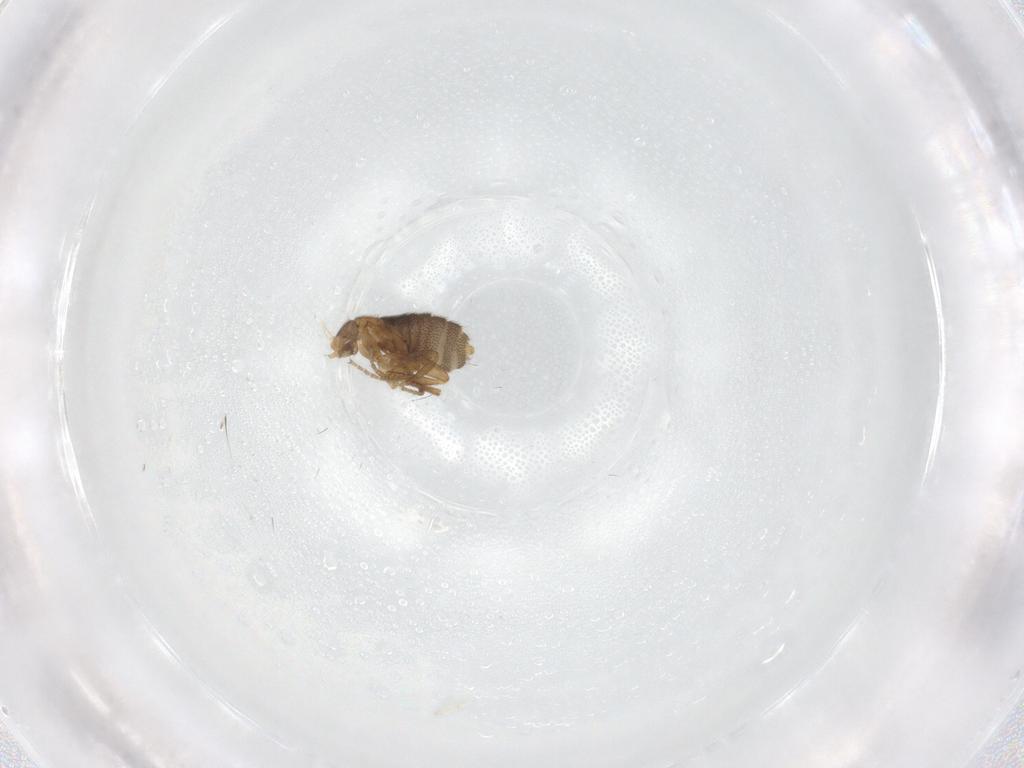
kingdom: Animalia
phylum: Arthropoda
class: Insecta
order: Diptera
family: Phoridae
